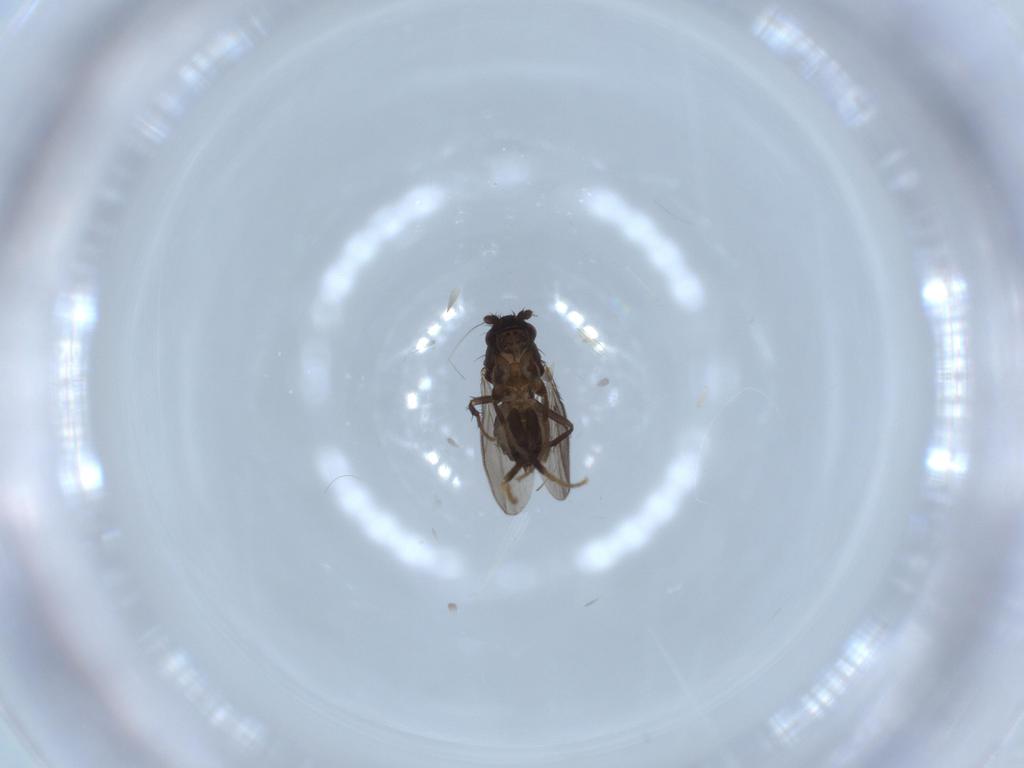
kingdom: Animalia
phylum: Arthropoda
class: Insecta
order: Diptera
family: Sphaeroceridae
